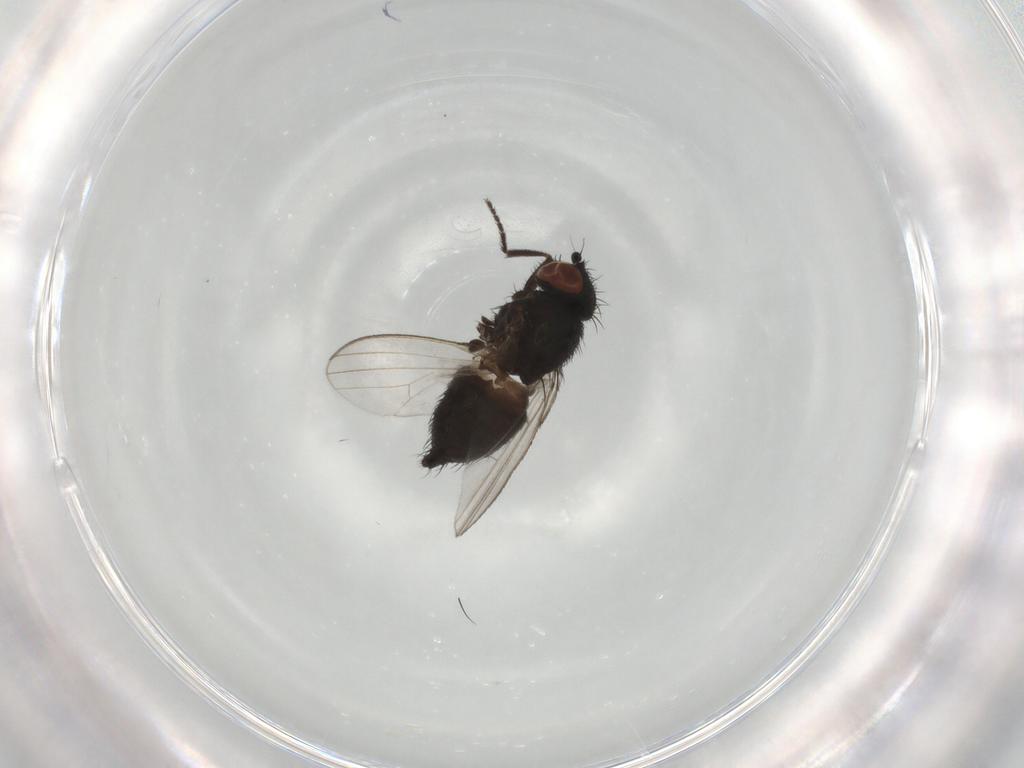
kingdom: Animalia
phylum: Arthropoda
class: Insecta
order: Diptera
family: Milichiidae
